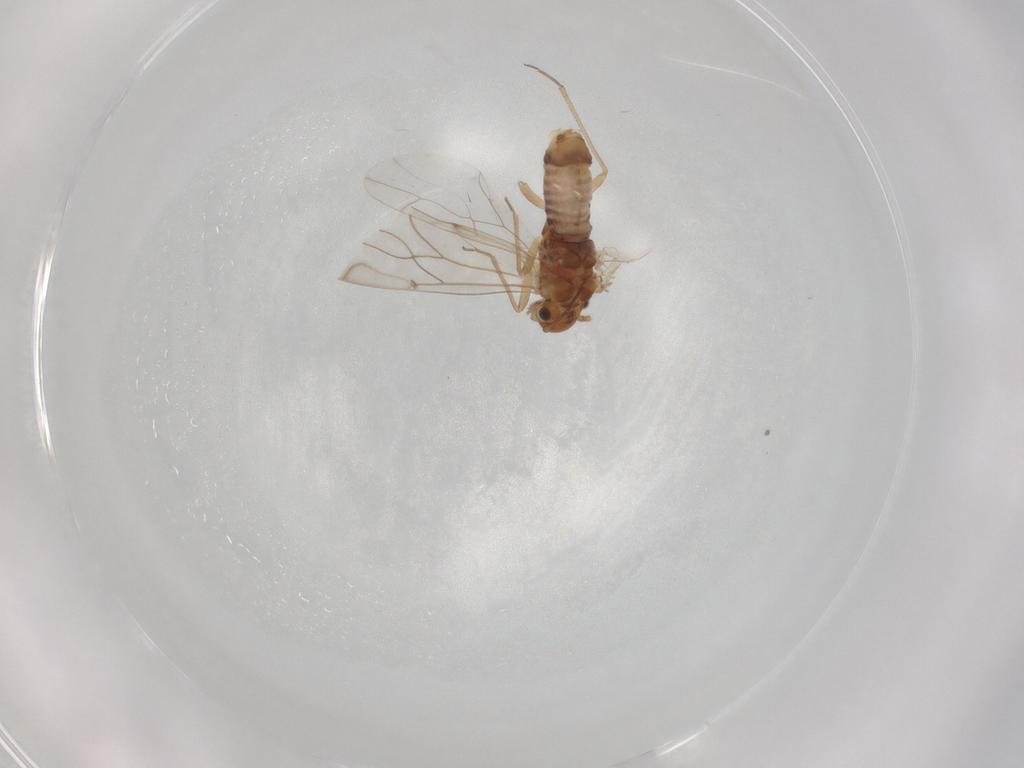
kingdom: Animalia
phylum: Arthropoda
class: Insecta
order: Psocodea
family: Lachesillidae
